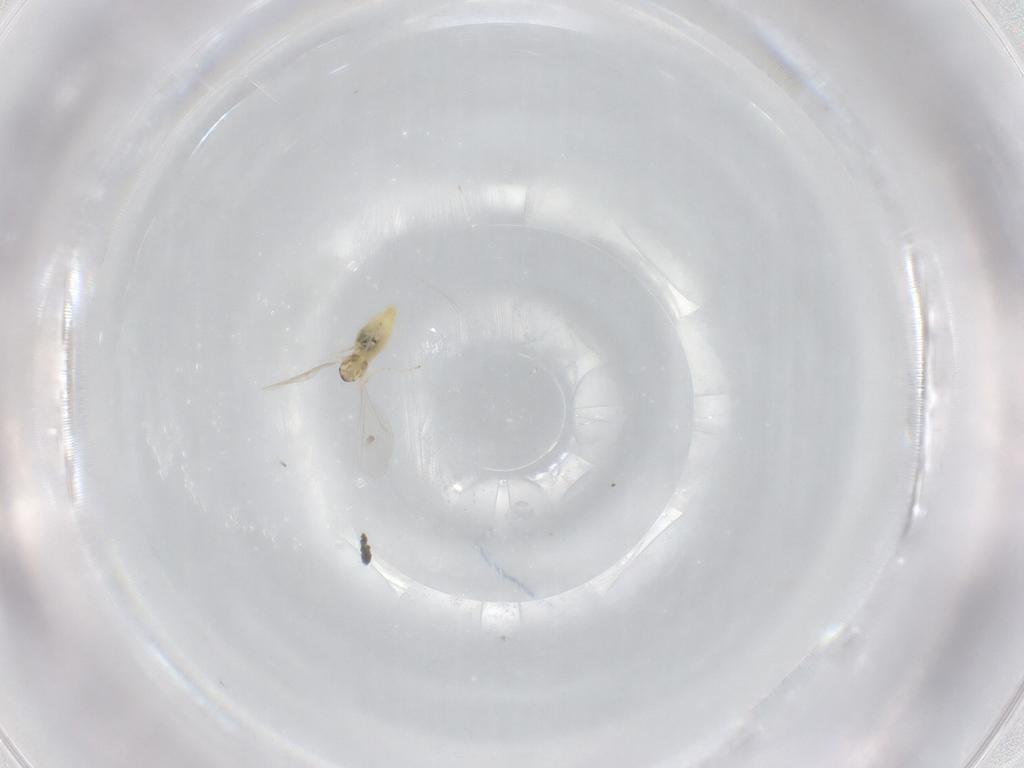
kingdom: Animalia
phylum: Arthropoda
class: Insecta
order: Diptera
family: Cecidomyiidae
